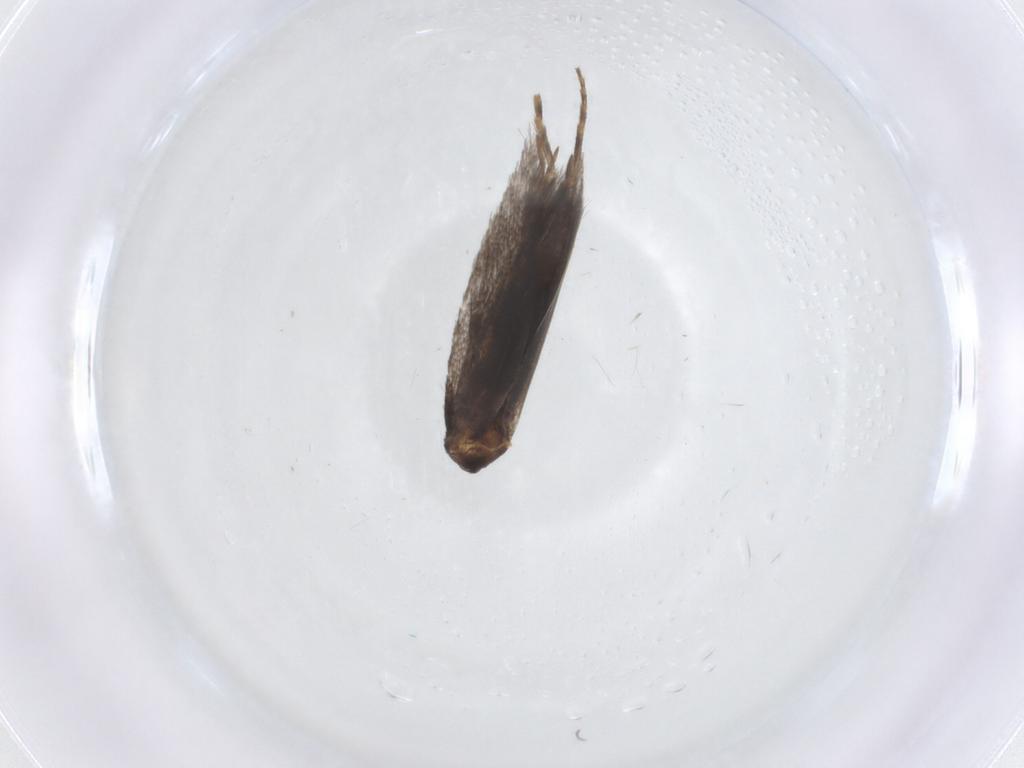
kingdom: Animalia
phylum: Arthropoda
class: Insecta
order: Lepidoptera
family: Elachistidae
